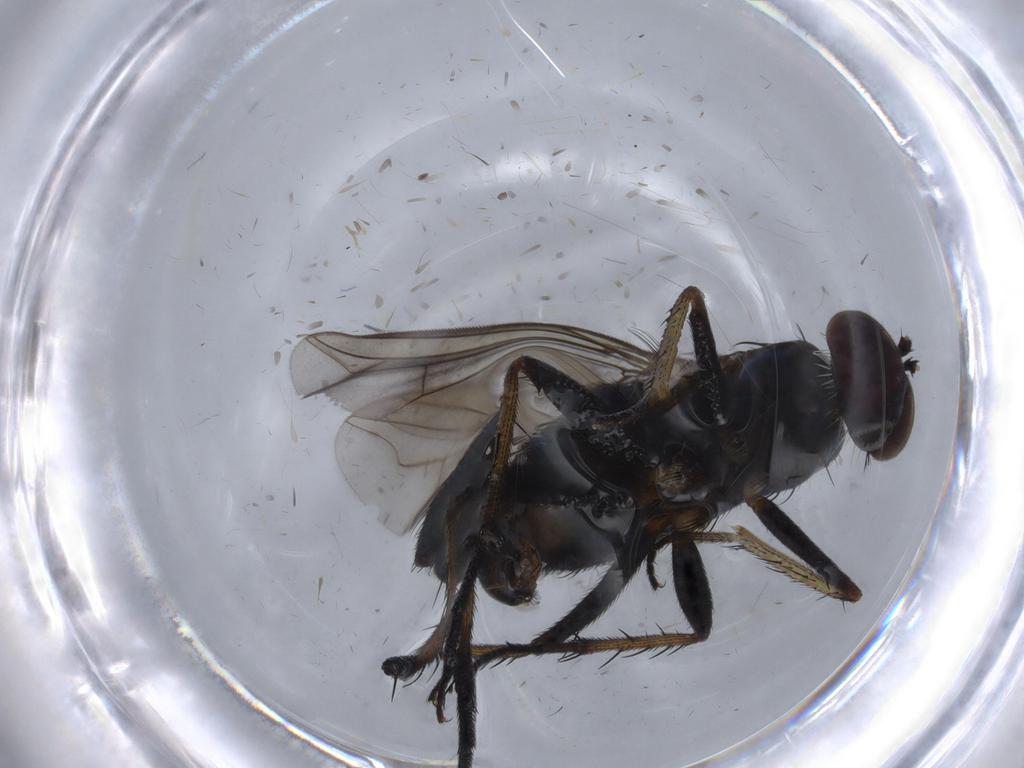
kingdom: Animalia
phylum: Arthropoda
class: Insecta
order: Diptera
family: Dolichopodidae
